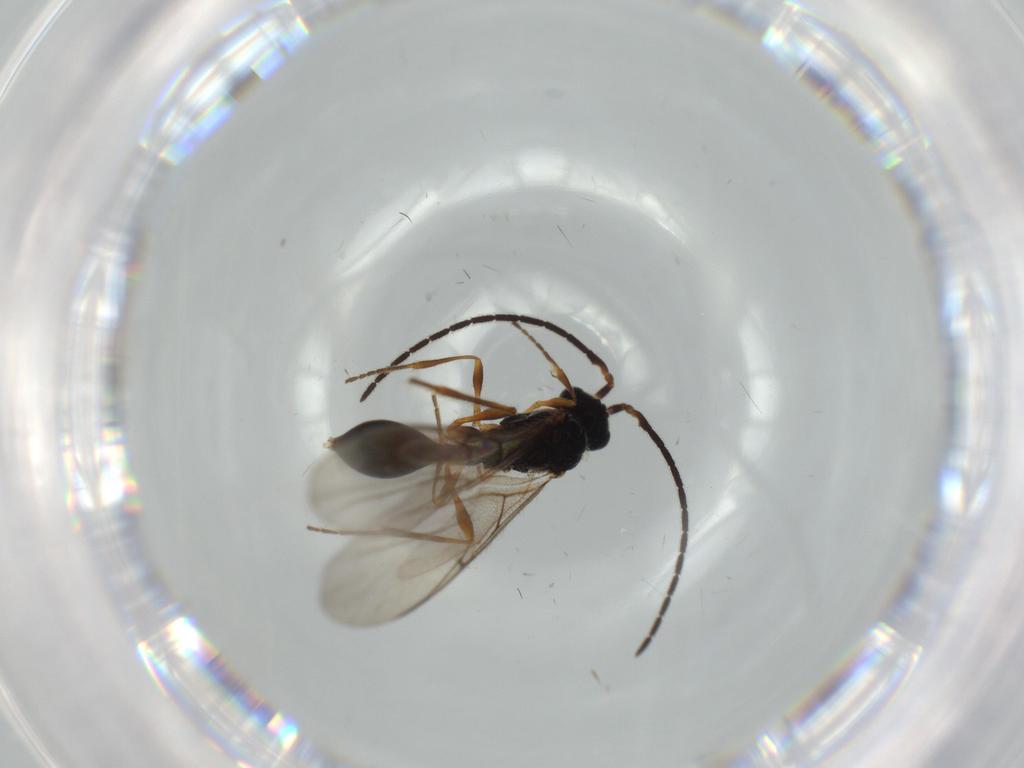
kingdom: Animalia
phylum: Arthropoda
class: Insecta
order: Hymenoptera
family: Diapriidae
